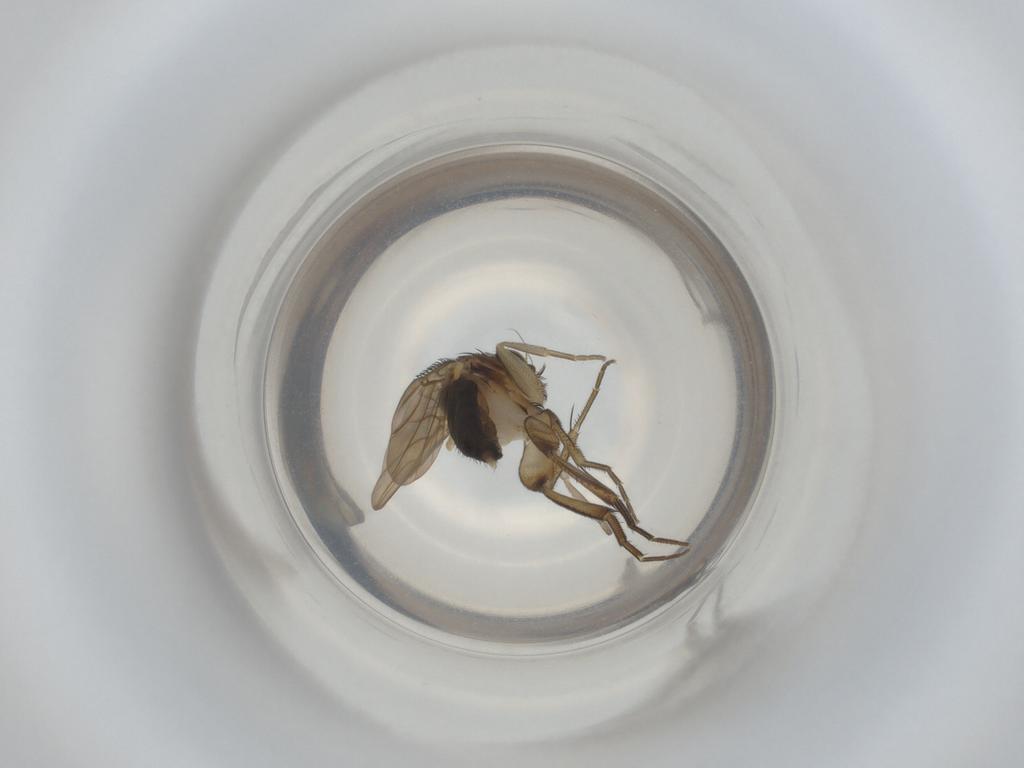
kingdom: Animalia
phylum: Arthropoda
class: Insecta
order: Diptera
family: Phoridae
